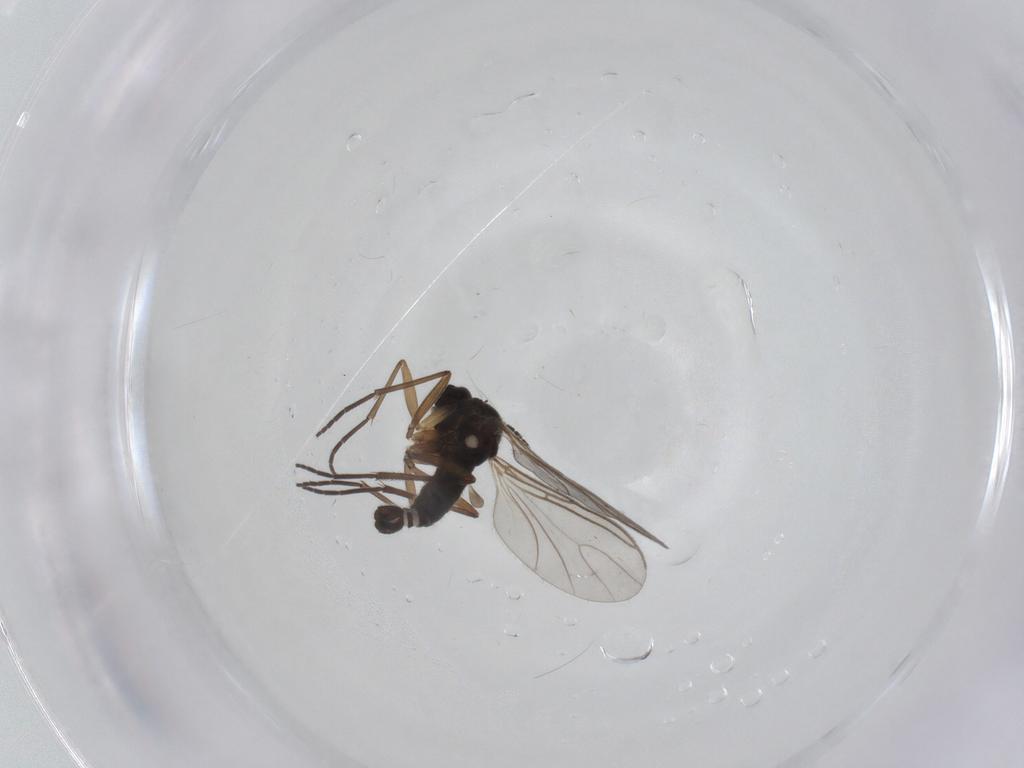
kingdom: Animalia
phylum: Arthropoda
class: Insecta
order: Diptera
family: Sciaridae
